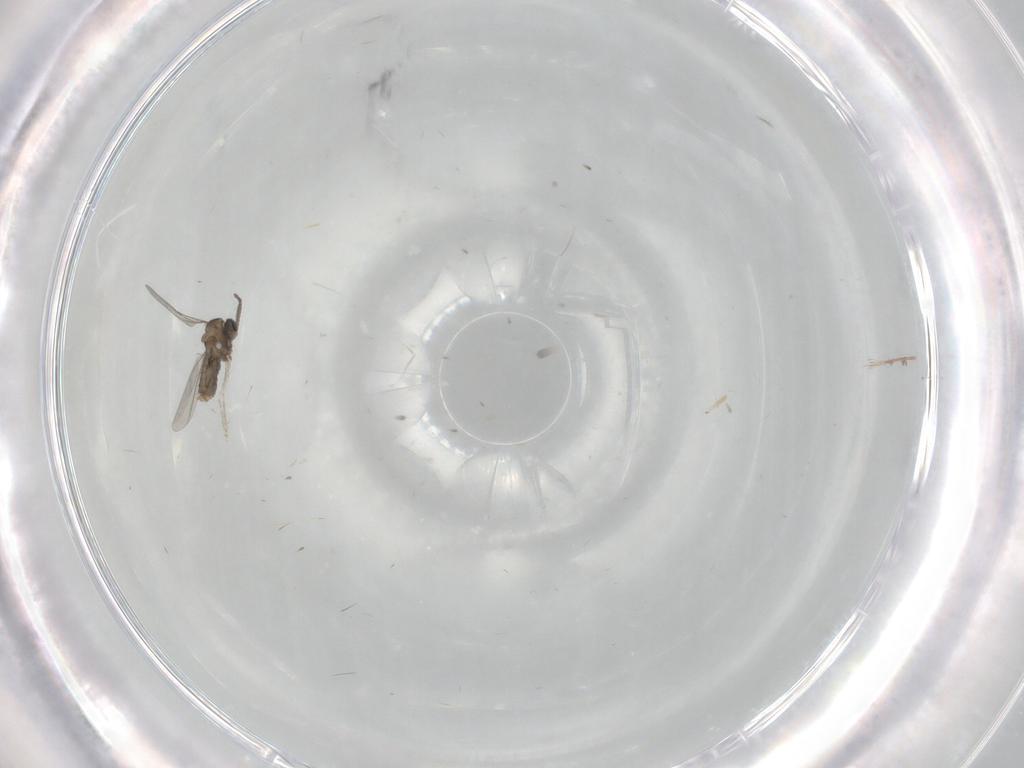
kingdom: Animalia
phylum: Arthropoda
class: Insecta
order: Diptera
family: Cecidomyiidae
